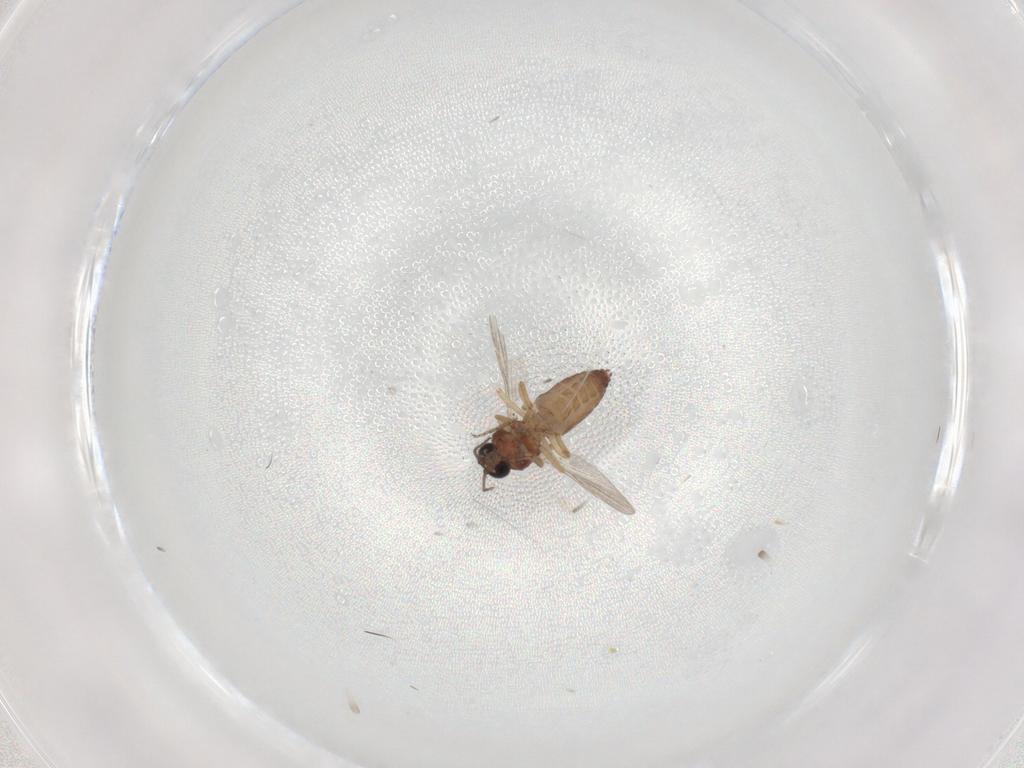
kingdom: Animalia
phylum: Arthropoda
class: Insecta
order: Diptera
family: Ceratopogonidae
